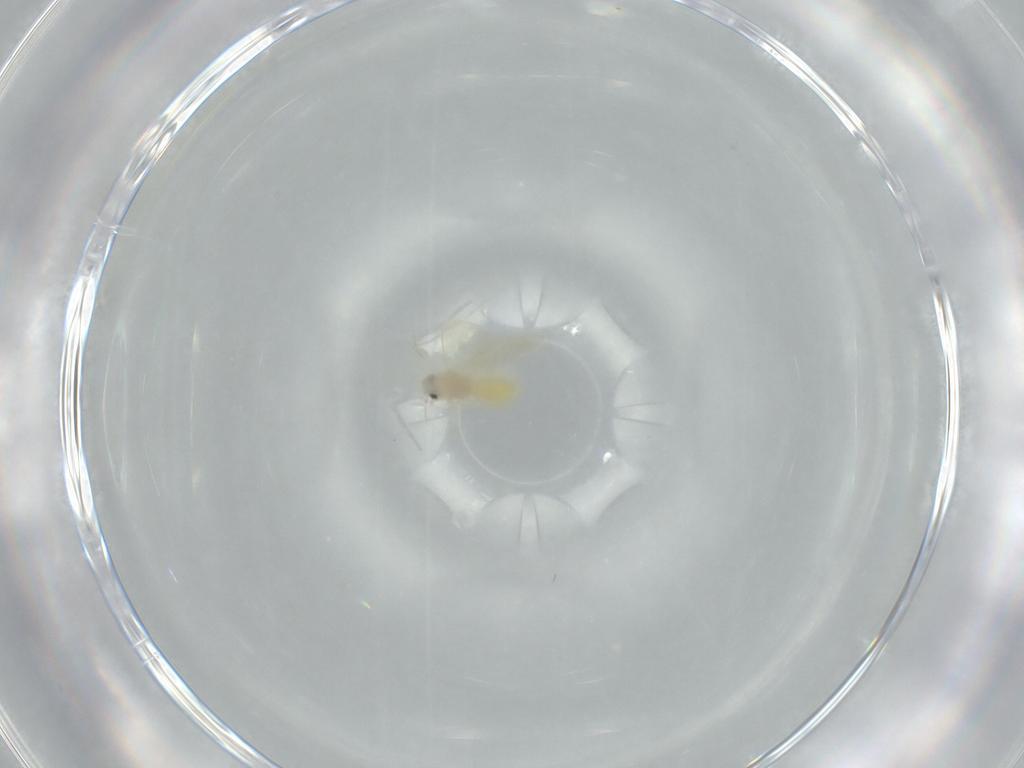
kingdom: Animalia
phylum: Arthropoda
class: Insecta
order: Hemiptera
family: Aleyrodidae
